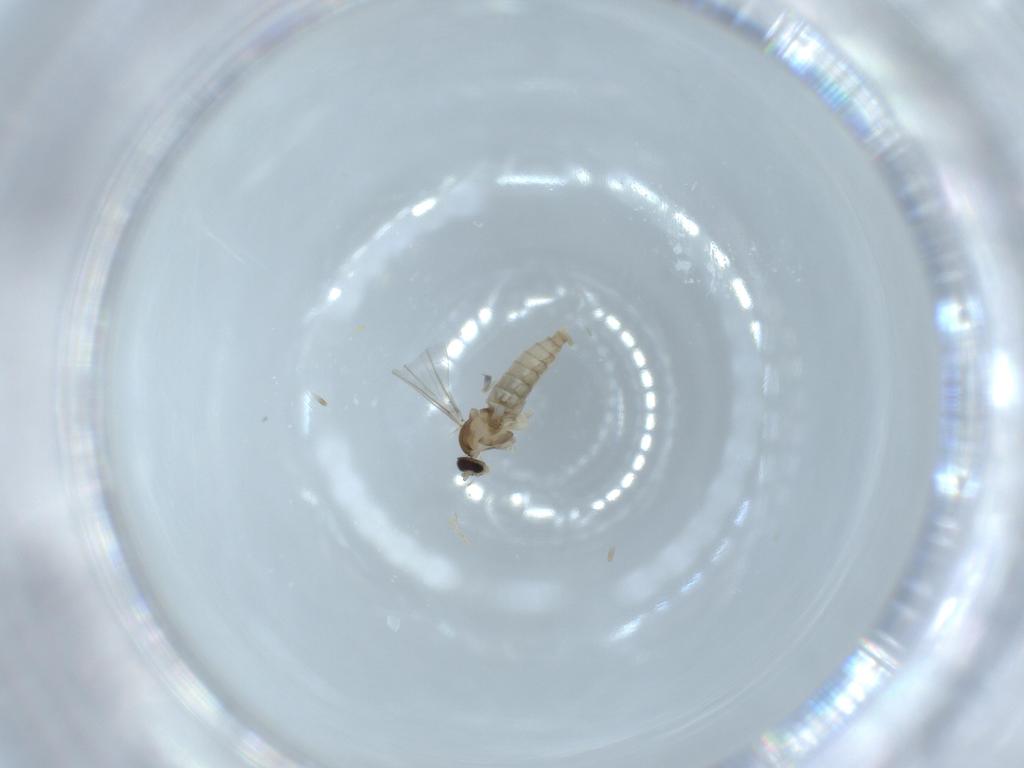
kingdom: Animalia
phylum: Arthropoda
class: Insecta
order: Diptera
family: Cecidomyiidae
